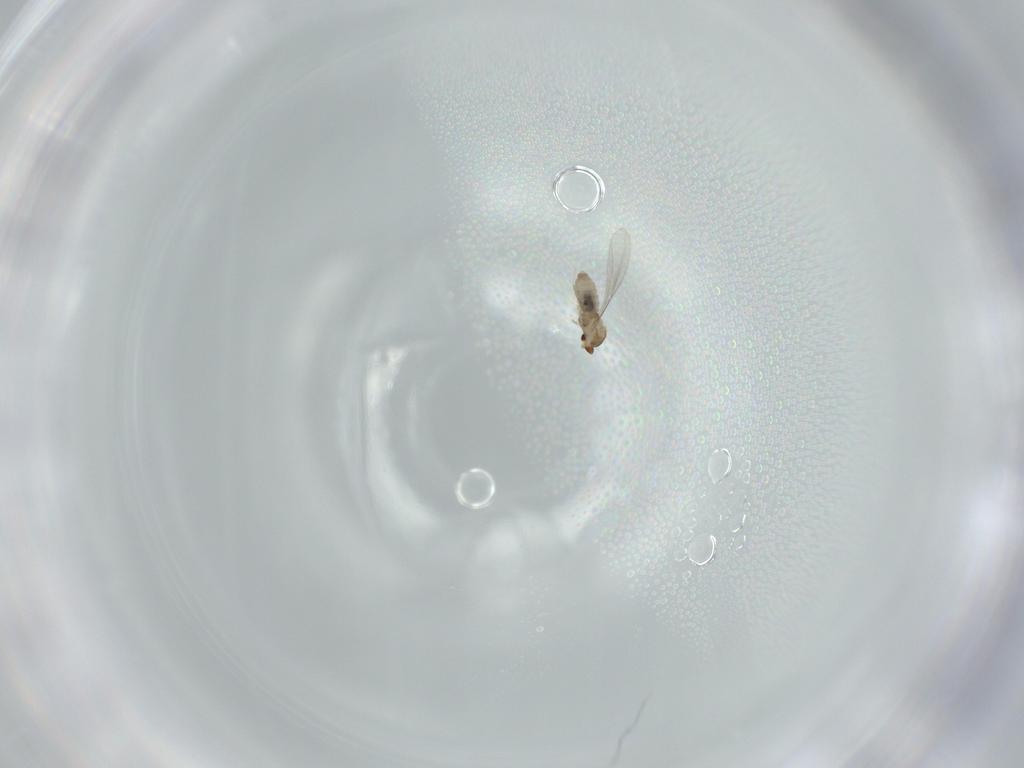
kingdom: Animalia
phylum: Arthropoda
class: Insecta
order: Diptera
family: Cecidomyiidae
